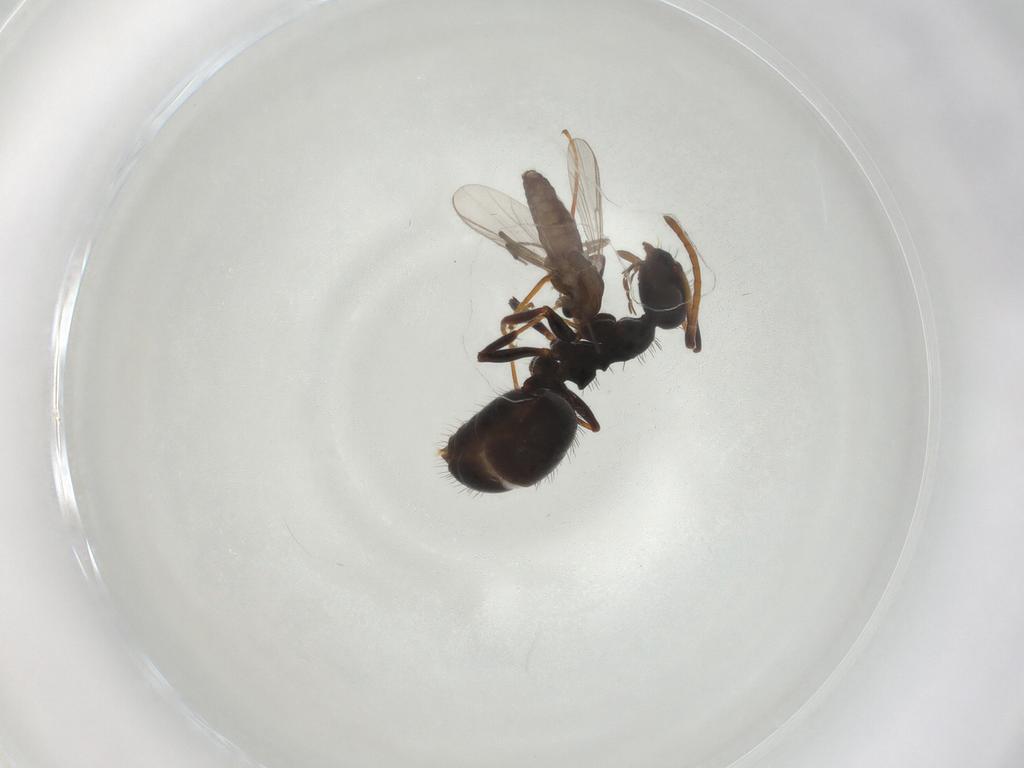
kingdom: Animalia
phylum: Arthropoda
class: Insecta
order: Diptera
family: Chironomidae
